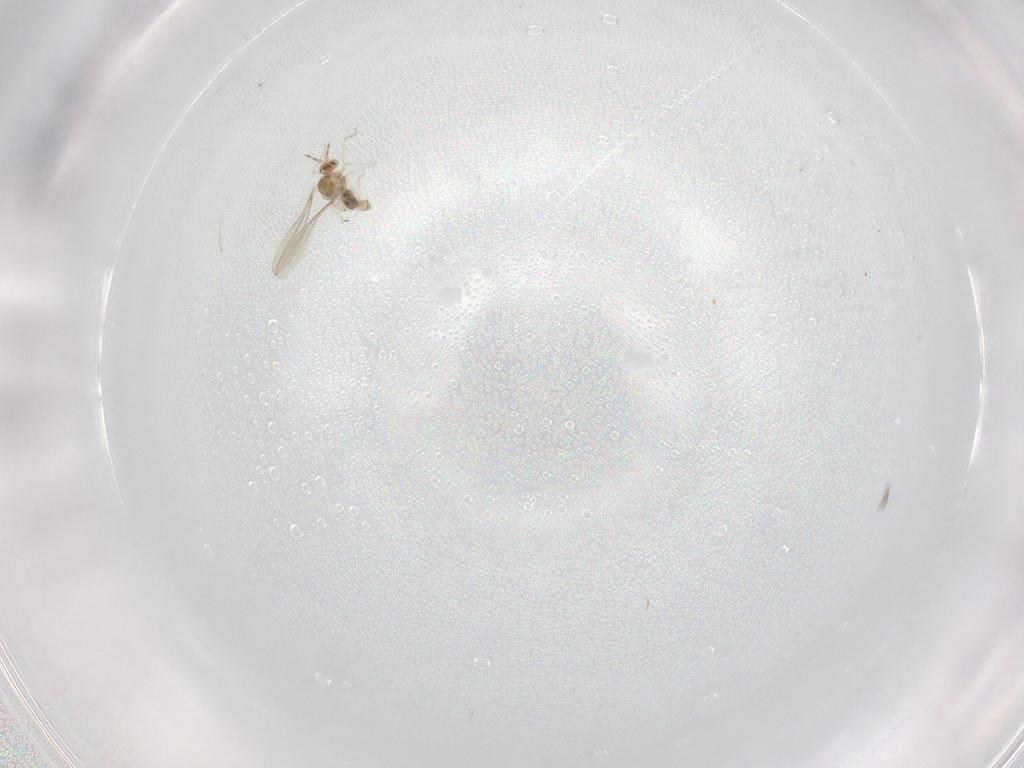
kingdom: Animalia
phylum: Arthropoda
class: Insecta
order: Diptera
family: Cecidomyiidae
